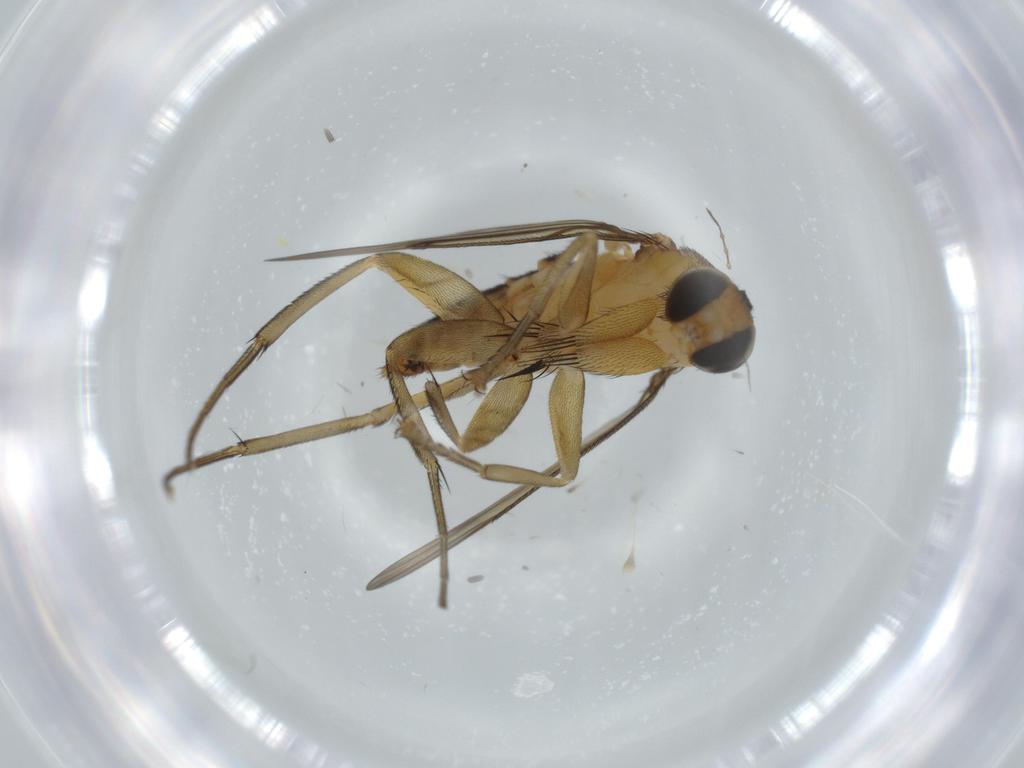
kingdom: Animalia
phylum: Arthropoda
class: Insecta
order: Diptera
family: Ceratopogonidae
